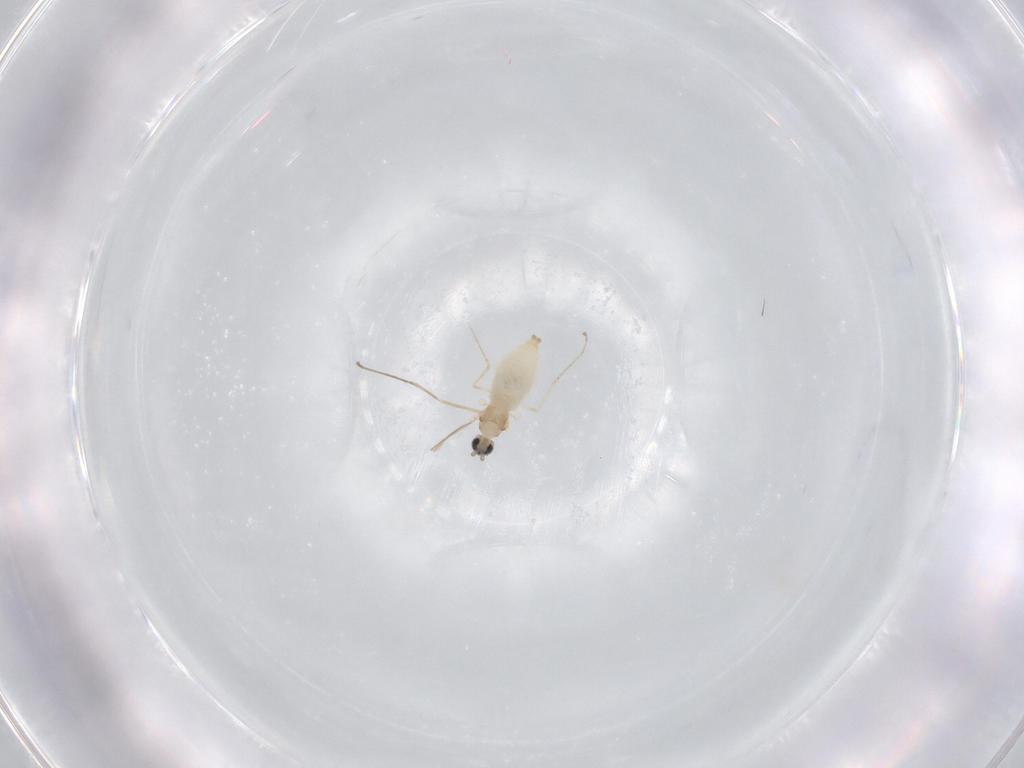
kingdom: Animalia
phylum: Arthropoda
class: Insecta
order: Diptera
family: Cecidomyiidae
